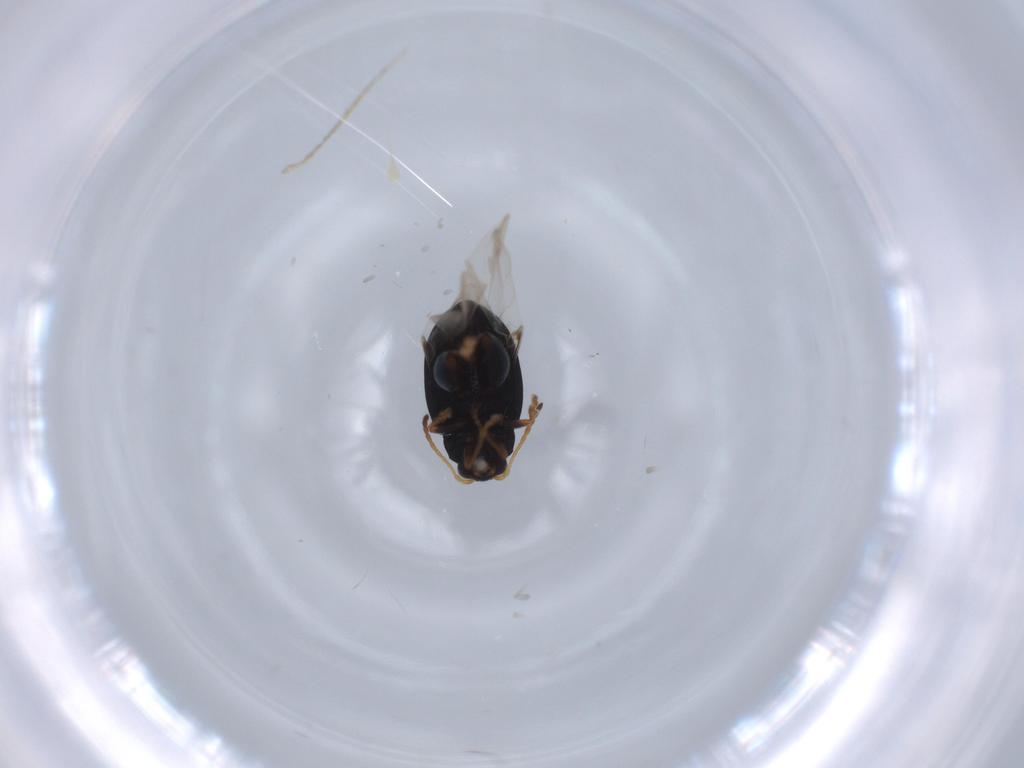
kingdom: Animalia
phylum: Arthropoda
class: Insecta
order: Coleoptera
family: Chrysomelidae
